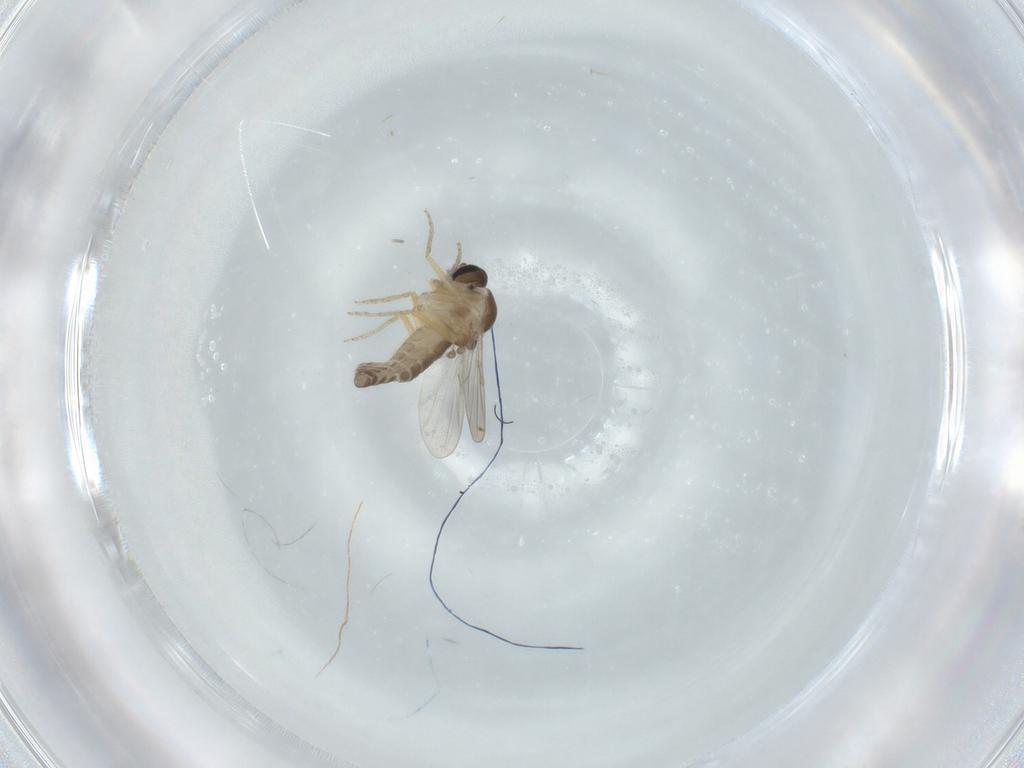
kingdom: Animalia
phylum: Arthropoda
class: Insecta
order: Diptera
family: Ceratopogonidae
